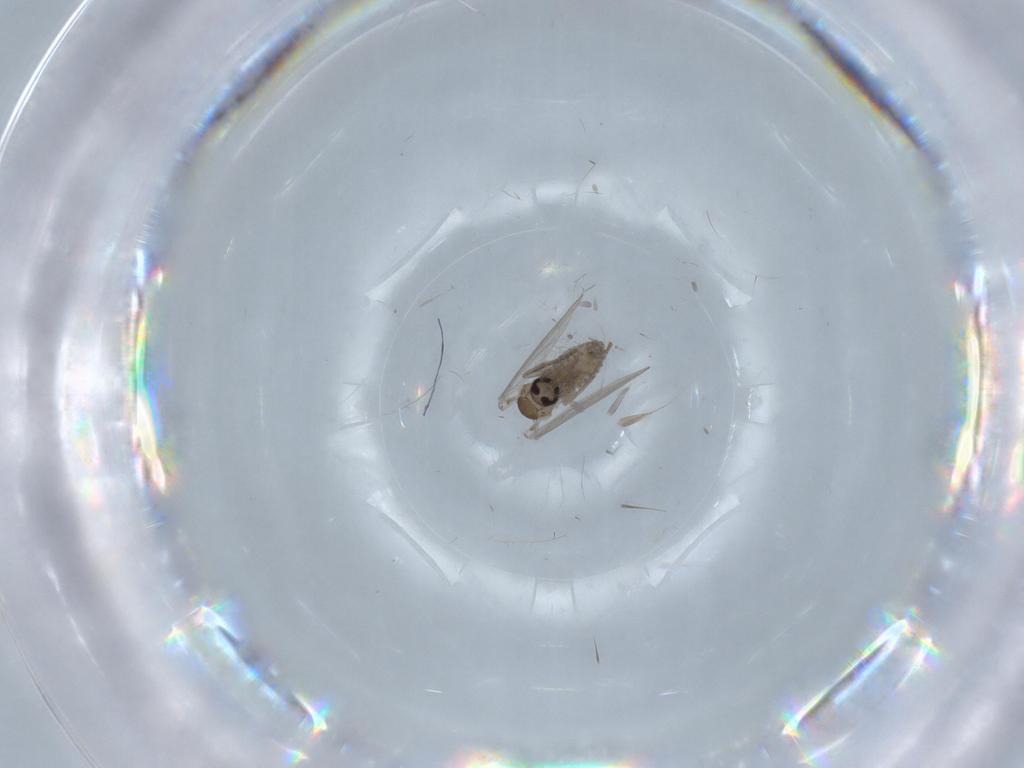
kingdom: Animalia
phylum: Arthropoda
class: Insecta
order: Diptera
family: Psychodidae
